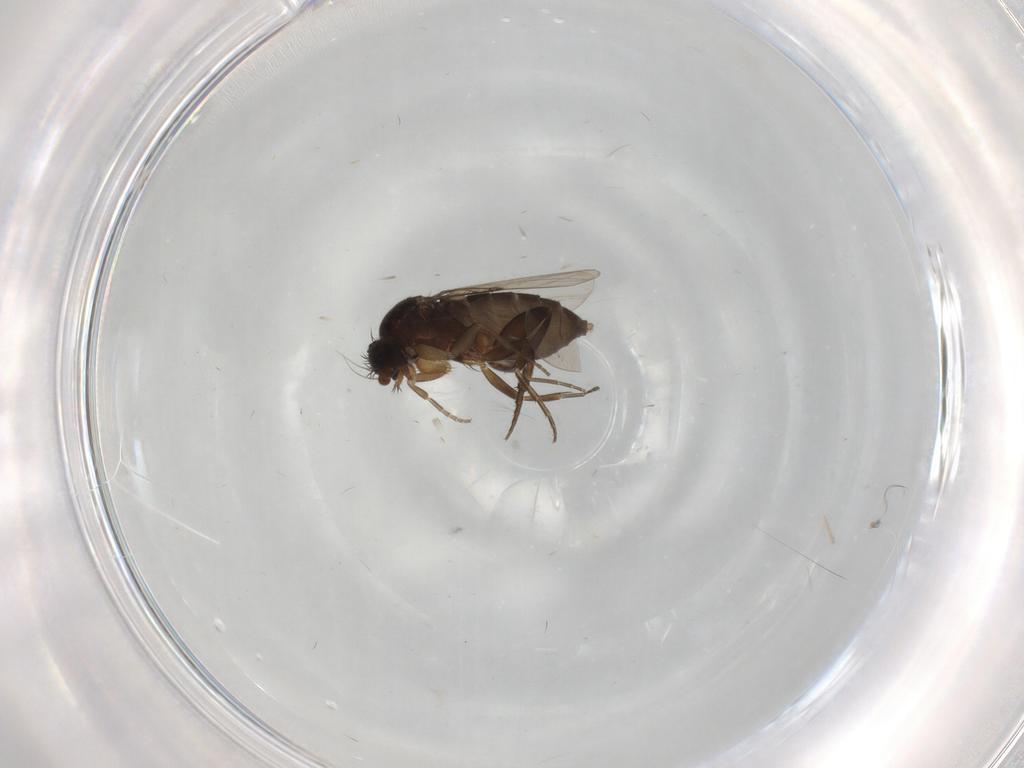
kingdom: Animalia
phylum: Arthropoda
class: Insecta
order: Diptera
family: Phoridae
